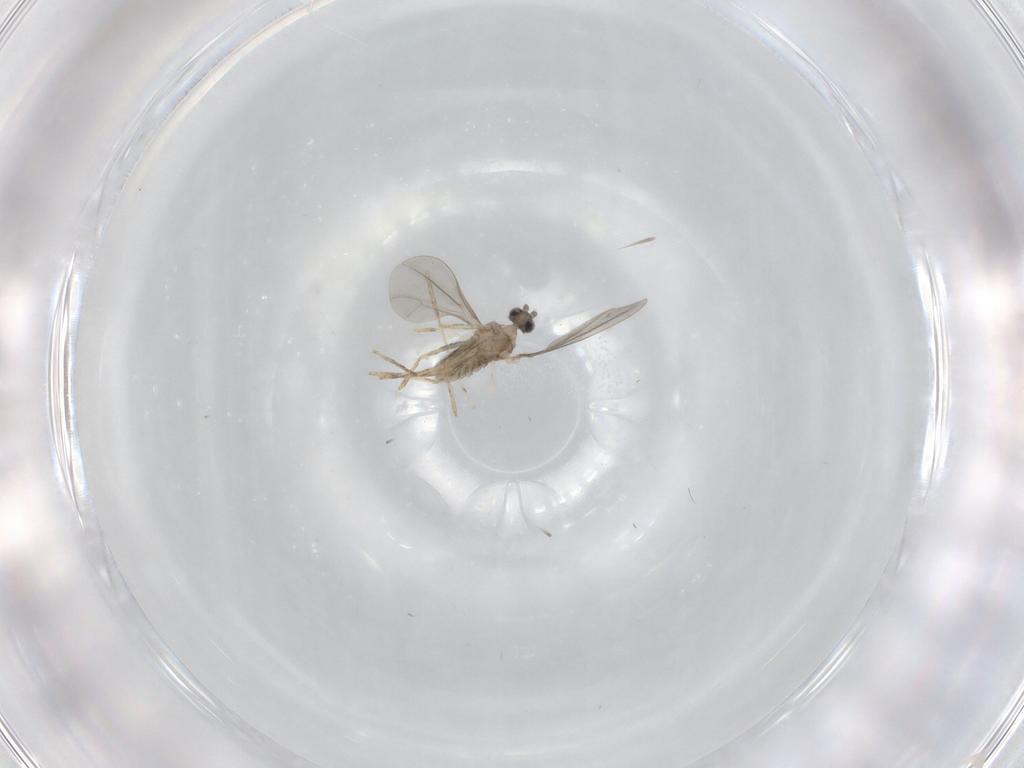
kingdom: Animalia
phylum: Arthropoda
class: Insecta
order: Diptera
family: Cecidomyiidae
